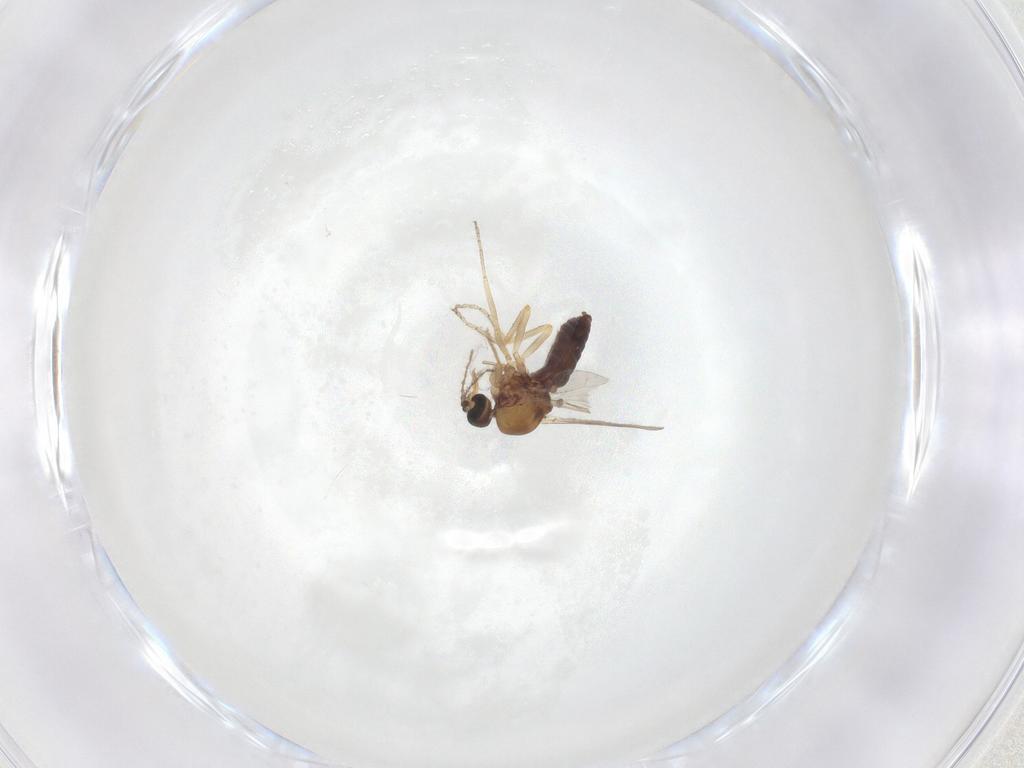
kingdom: Animalia
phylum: Arthropoda
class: Insecta
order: Diptera
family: Ceratopogonidae
